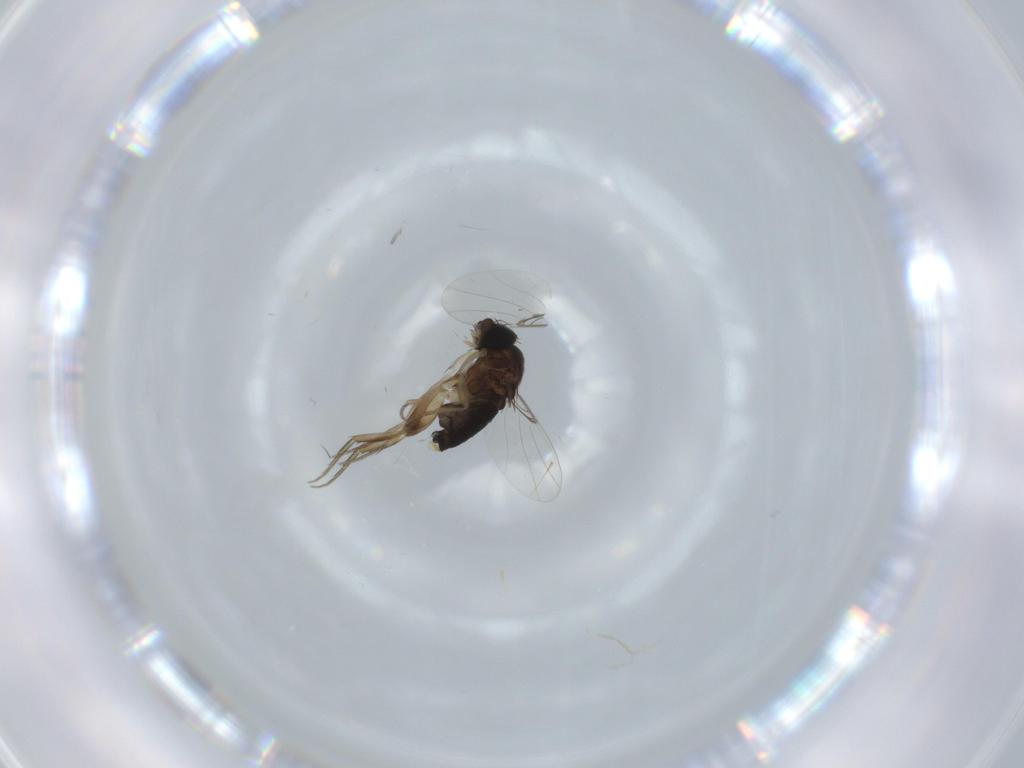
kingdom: Animalia
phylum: Arthropoda
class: Insecta
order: Diptera
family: Phoridae
